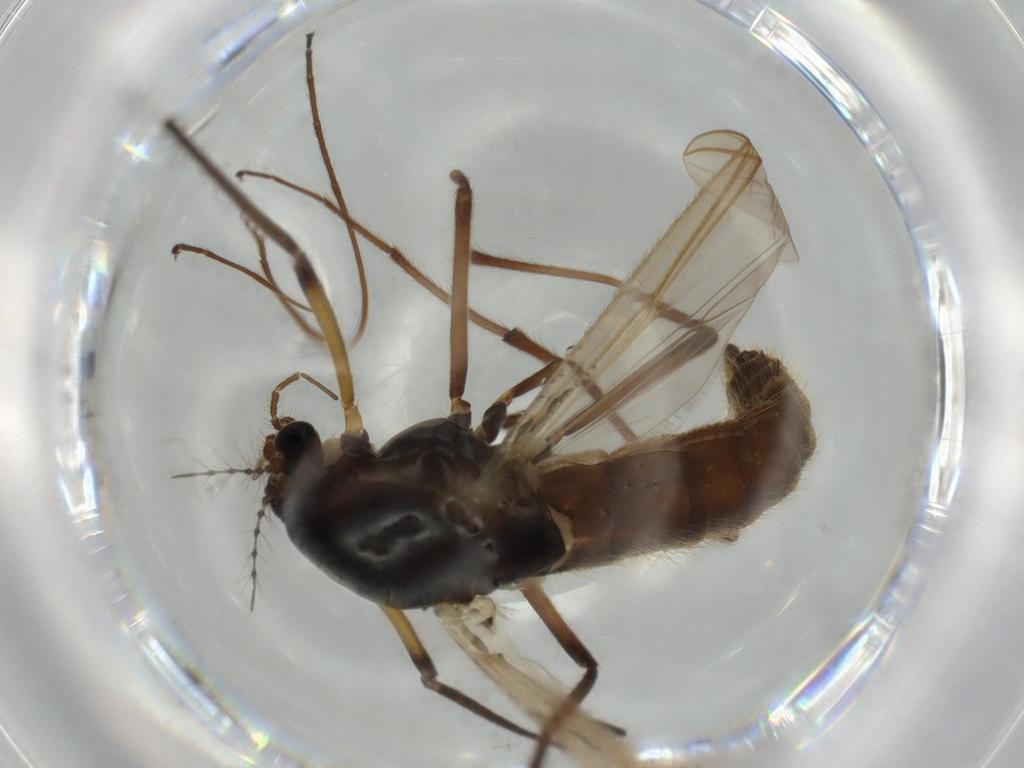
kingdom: Animalia
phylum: Arthropoda
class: Insecta
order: Diptera
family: Chironomidae
